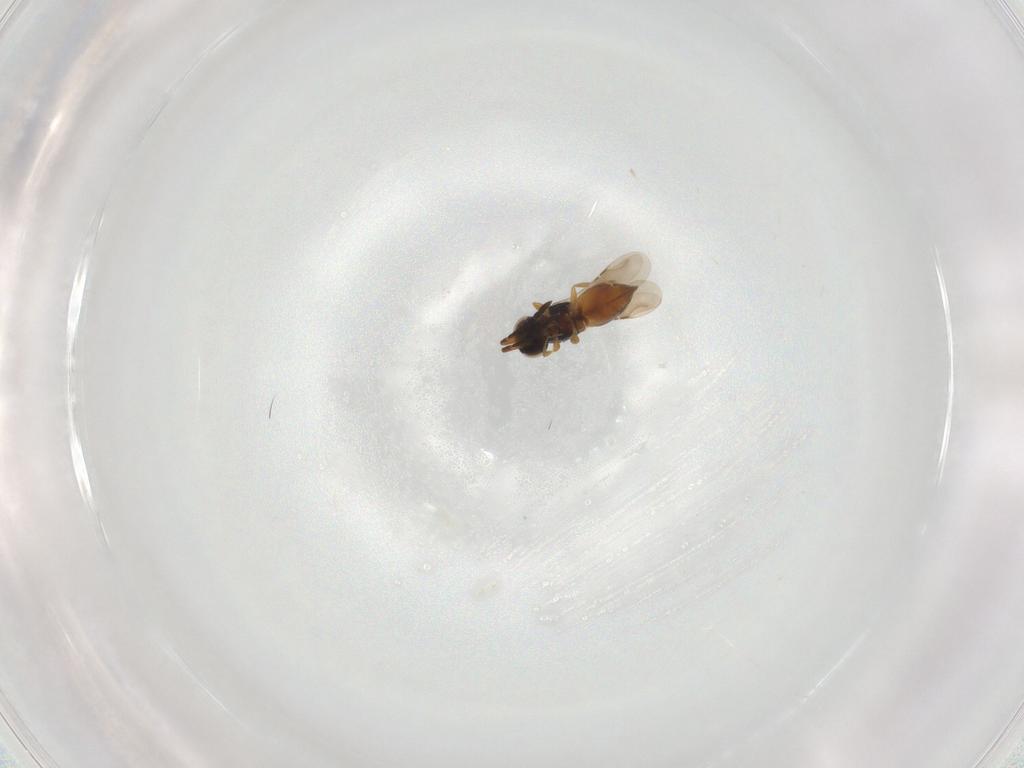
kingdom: Animalia
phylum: Arthropoda
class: Insecta
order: Hymenoptera
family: Ceraphronidae
